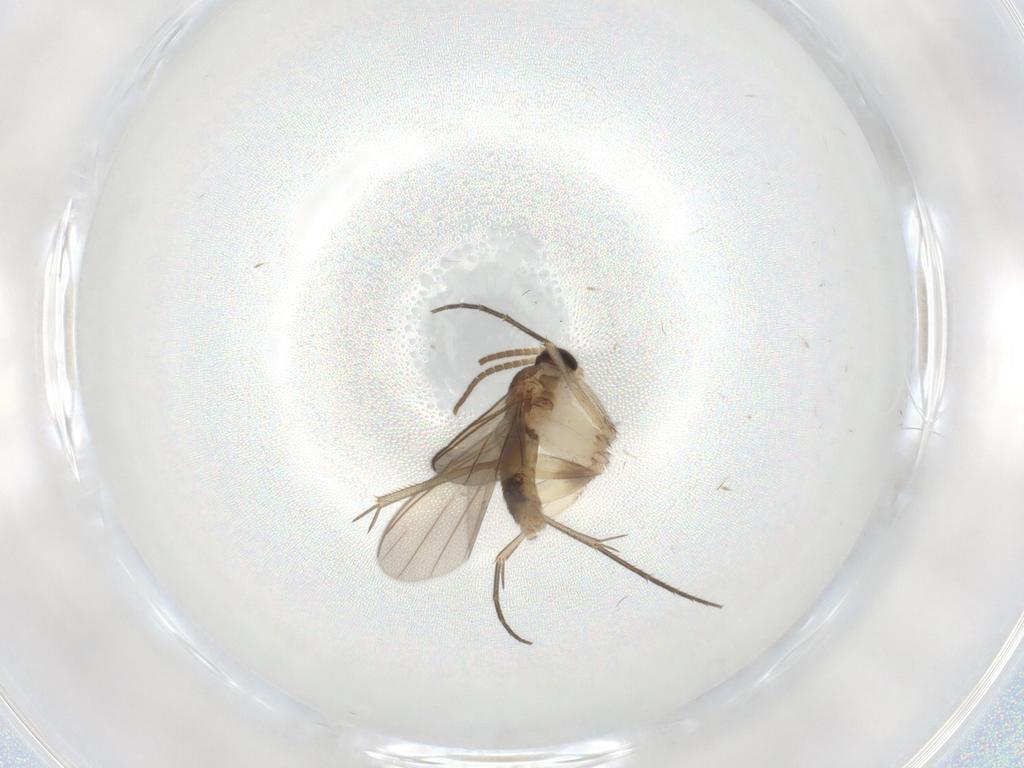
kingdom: Animalia
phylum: Arthropoda
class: Insecta
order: Diptera
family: Mycetophilidae
